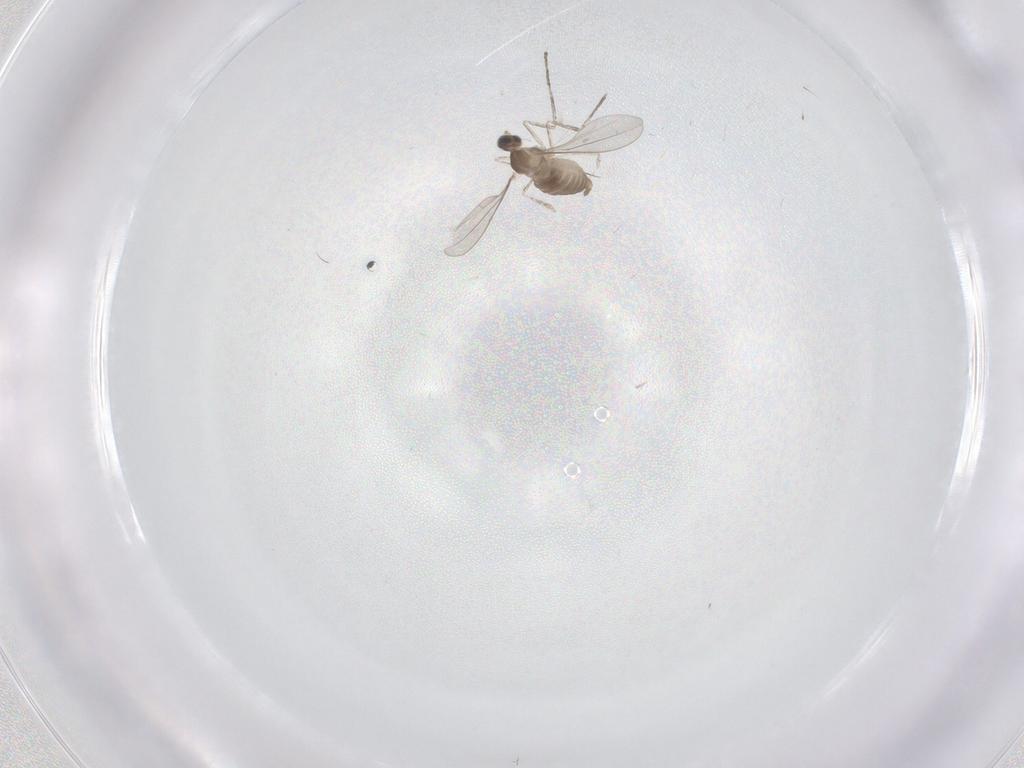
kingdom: Animalia
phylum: Arthropoda
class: Insecta
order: Diptera
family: Cecidomyiidae
